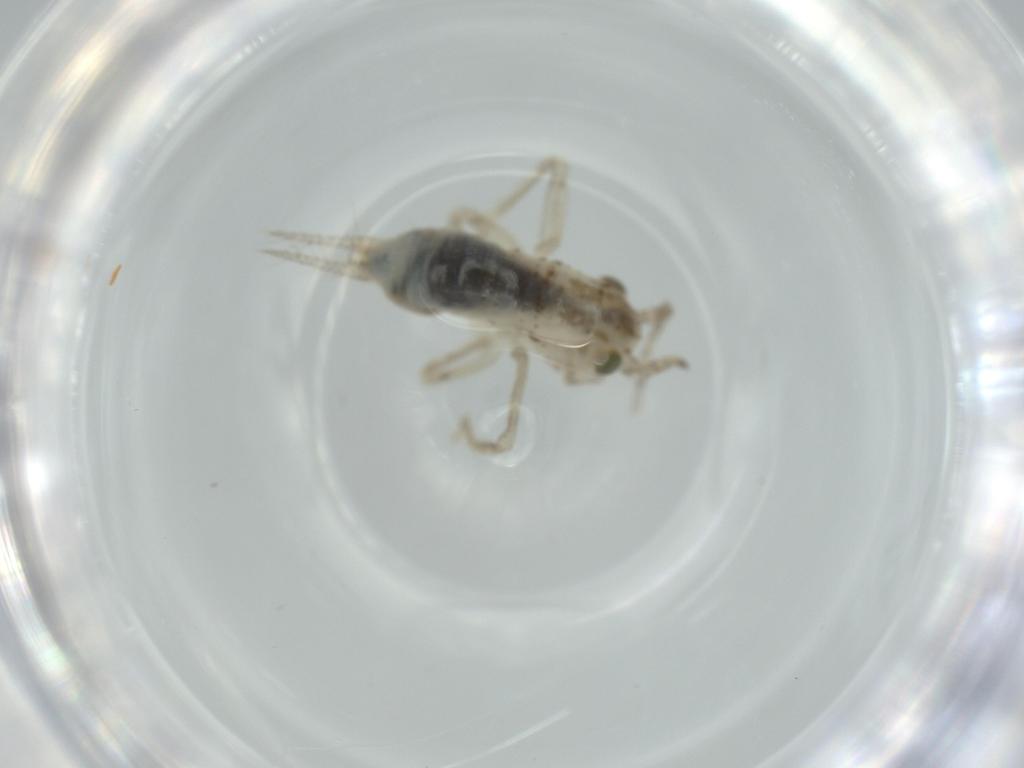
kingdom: Animalia
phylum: Arthropoda
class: Insecta
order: Orthoptera
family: Trigonidiidae
